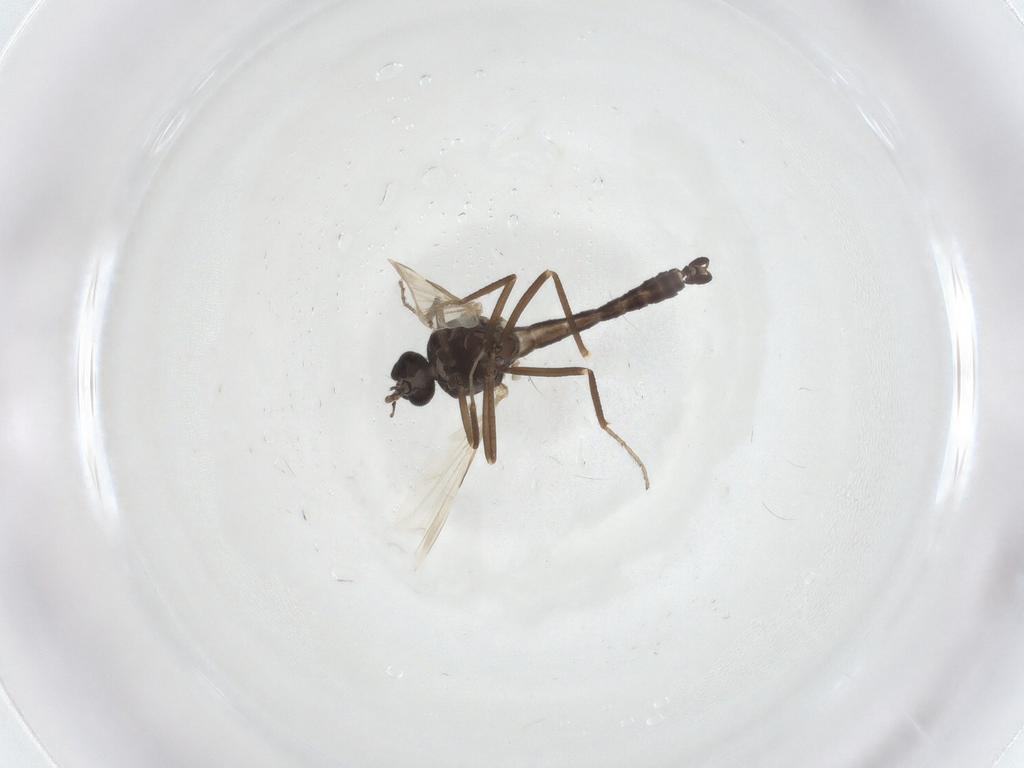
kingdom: Animalia
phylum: Arthropoda
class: Insecta
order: Diptera
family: Ceratopogonidae
